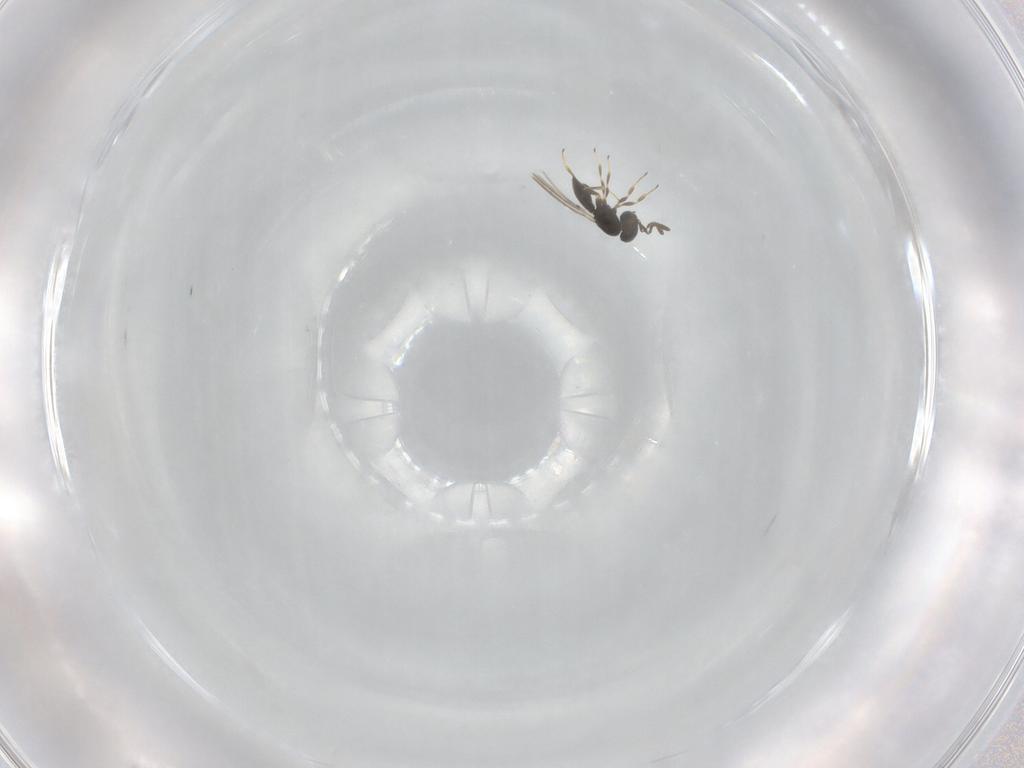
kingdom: Animalia
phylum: Arthropoda
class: Insecta
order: Hymenoptera
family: Scelionidae
